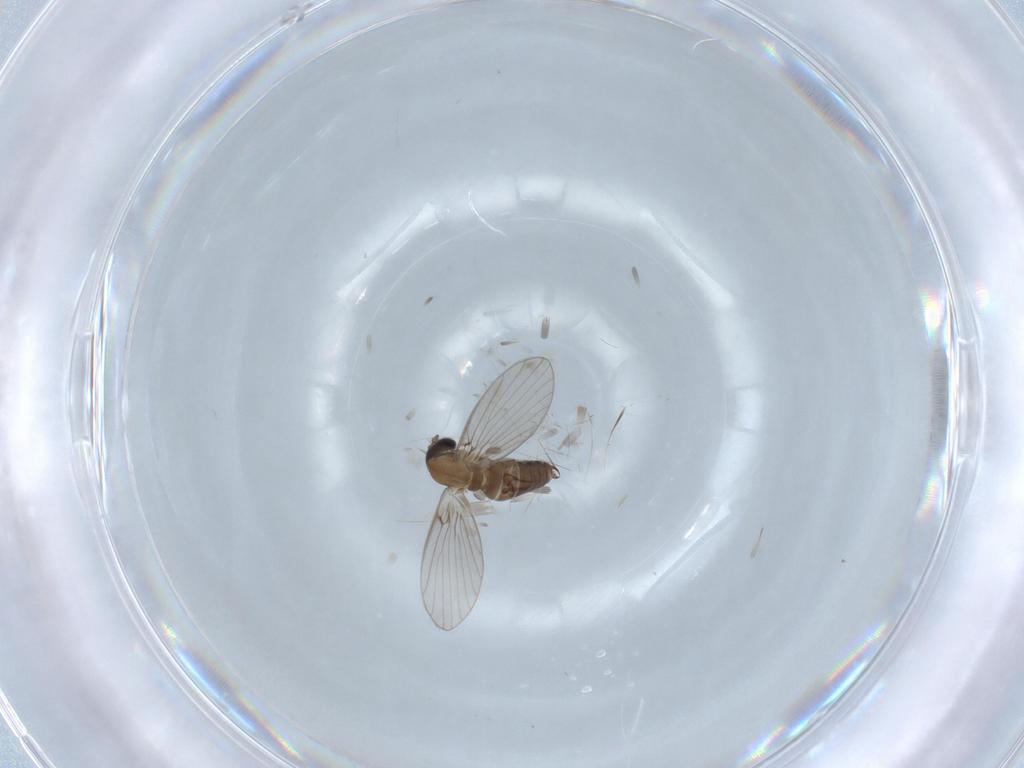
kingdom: Animalia
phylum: Arthropoda
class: Insecta
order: Diptera
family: Psychodidae
